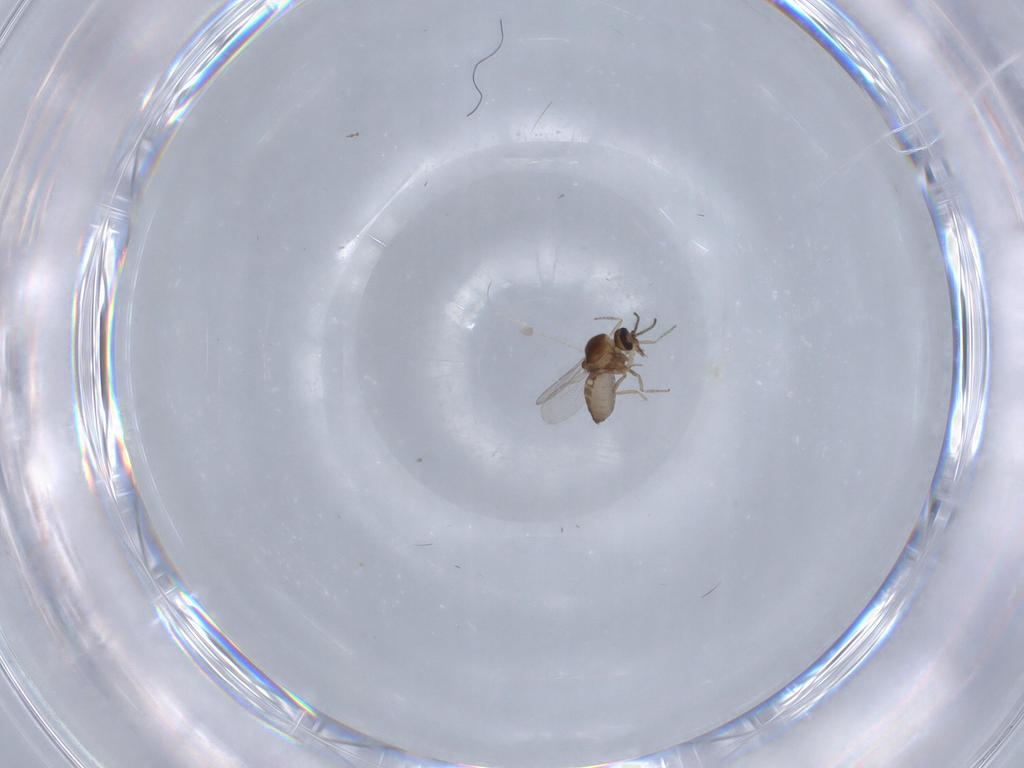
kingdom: Animalia
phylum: Arthropoda
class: Insecta
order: Diptera
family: Ceratopogonidae
